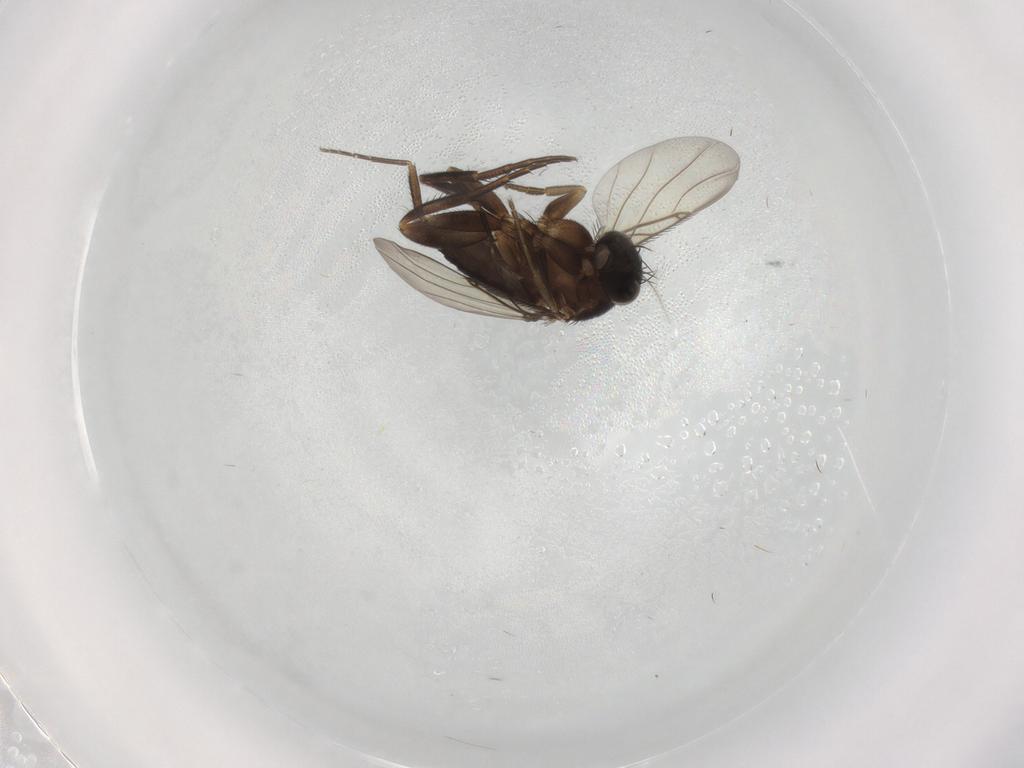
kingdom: Animalia
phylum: Arthropoda
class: Insecta
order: Diptera
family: Phoridae
